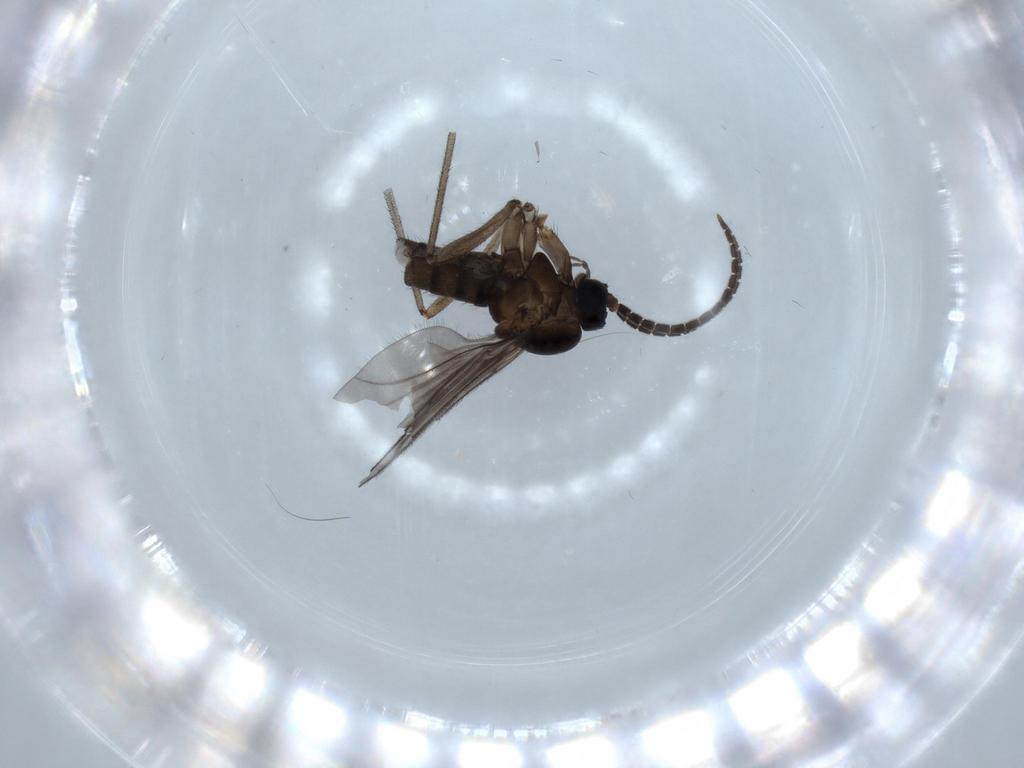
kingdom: Animalia
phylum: Arthropoda
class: Insecta
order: Diptera
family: Sciaridae
